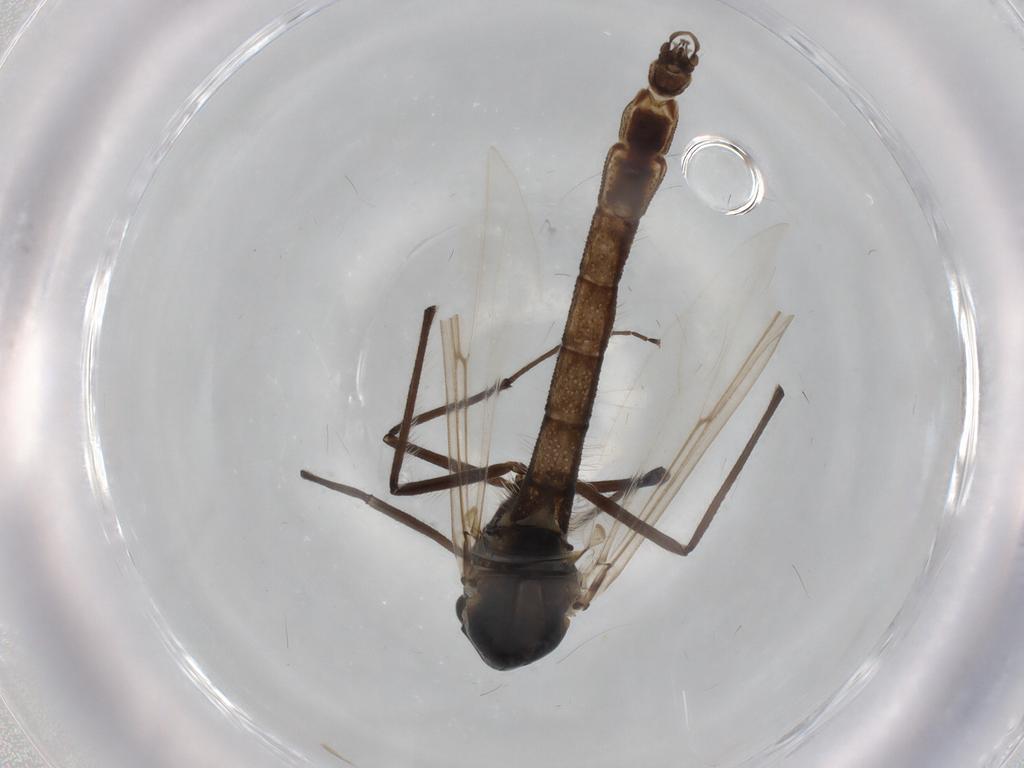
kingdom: Animalia
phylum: Arthropoda
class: Insecta
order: Diptera
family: Chironomidae
